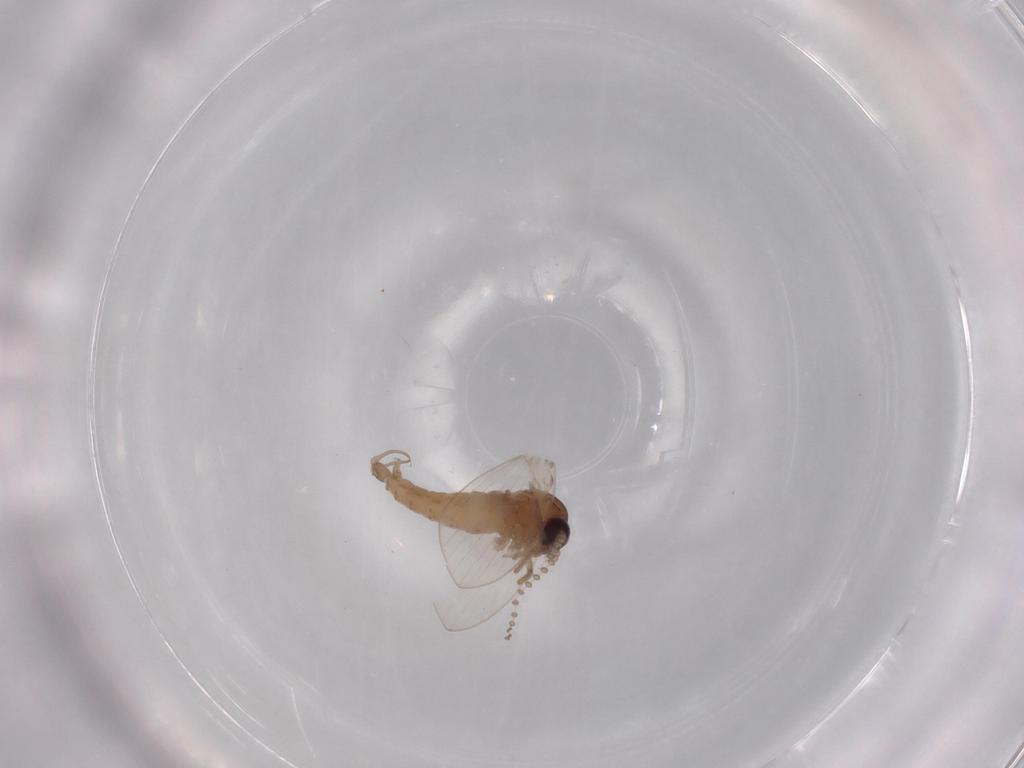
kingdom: Animalia
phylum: Arthropoda
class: Insecta
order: Diptera
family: Psychodidae
